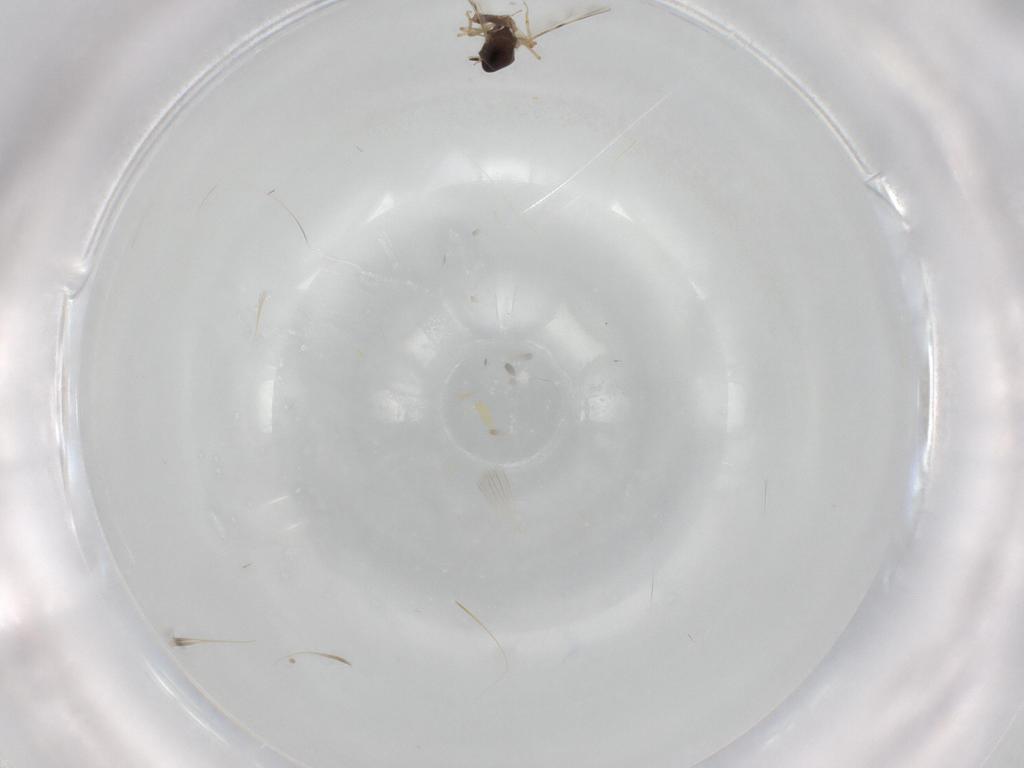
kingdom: Animalia
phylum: Arthropoda
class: Insecta
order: Diptera
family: Ceratopogonidae
